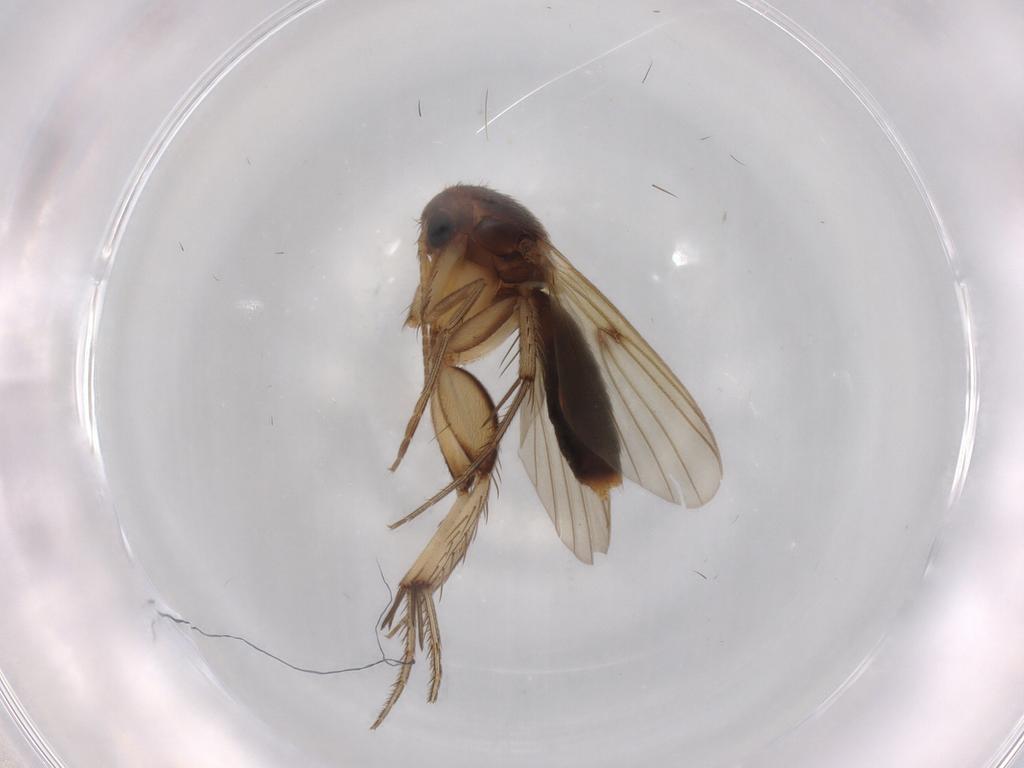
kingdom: Animalia
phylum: Arthropoda
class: Insecta
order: Diptera
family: Mycetophilidae
